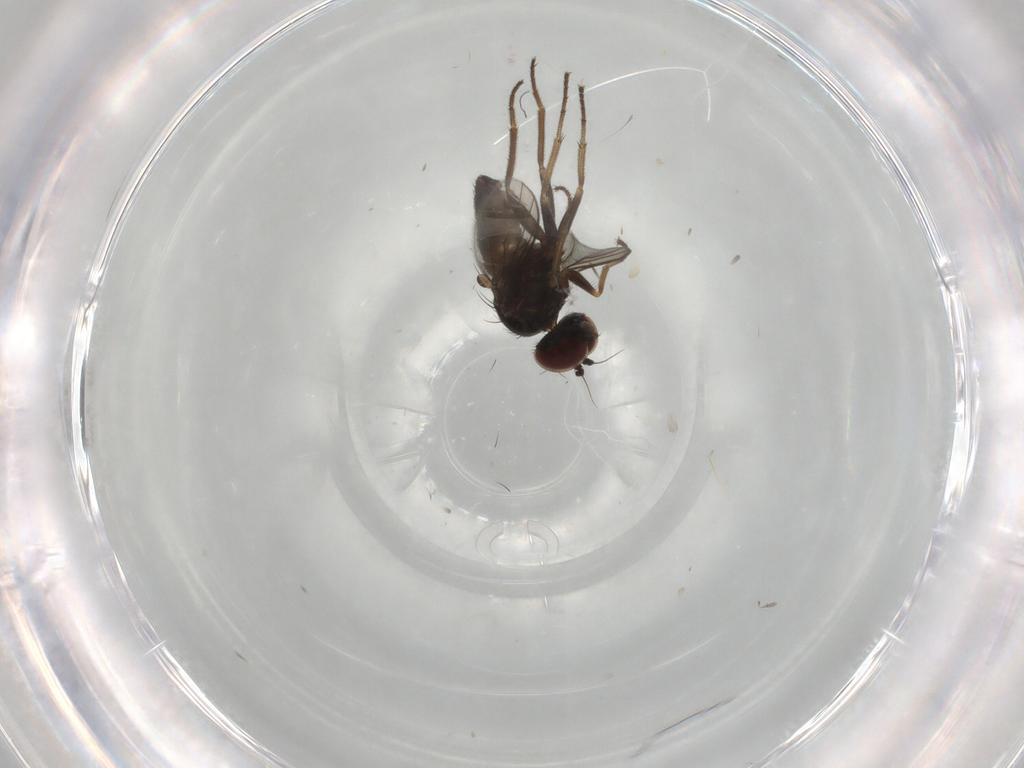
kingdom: Animalia
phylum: Arthropoda
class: Insecta
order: Diptera
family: Dolichopodidae
